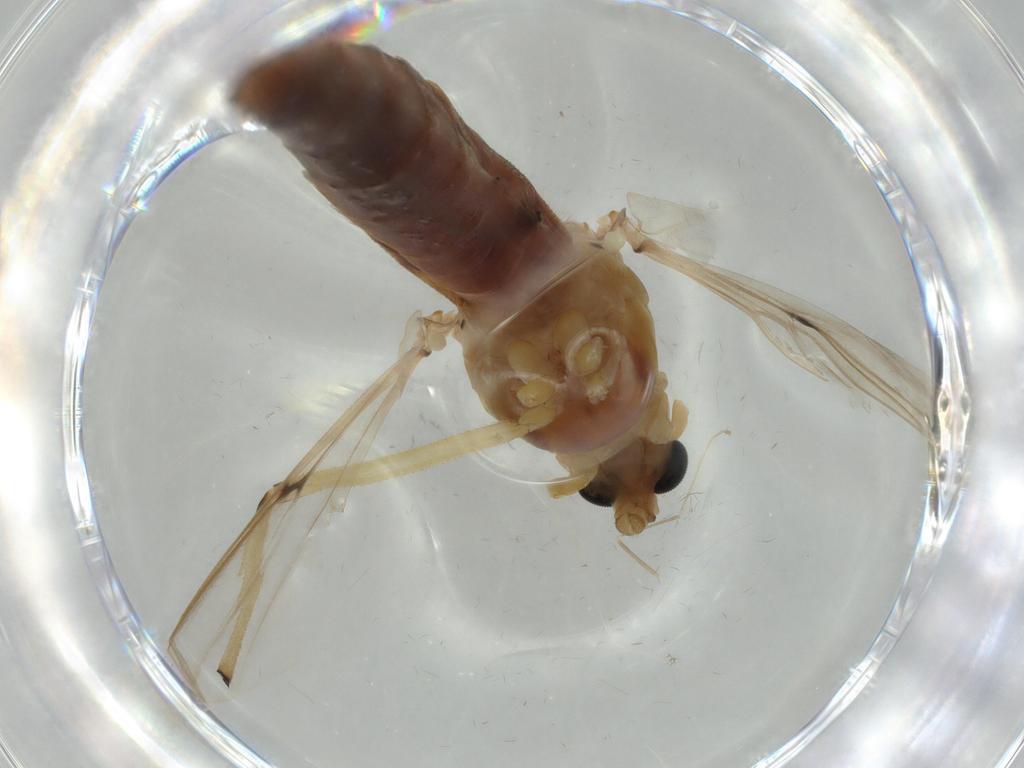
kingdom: Animalia
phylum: Arthropoda
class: Insecta
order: Diptera
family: Chironomidae
